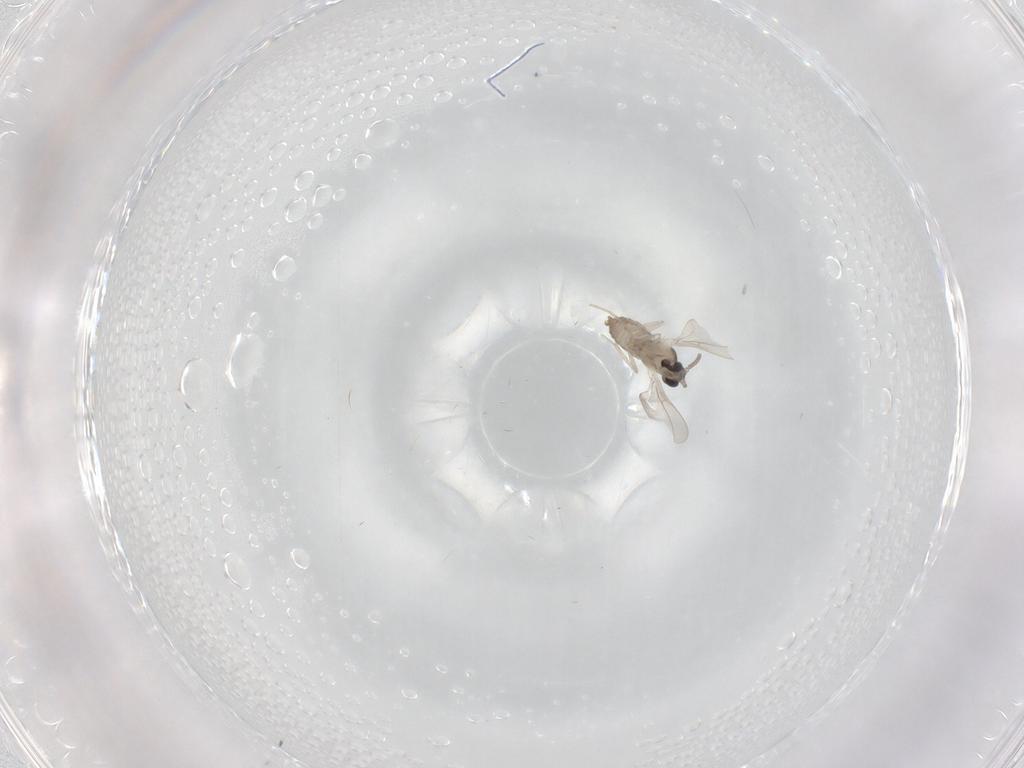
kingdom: Animalia
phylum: Arthropoda
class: Insecta
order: Diptera
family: Cecidomyiidae
